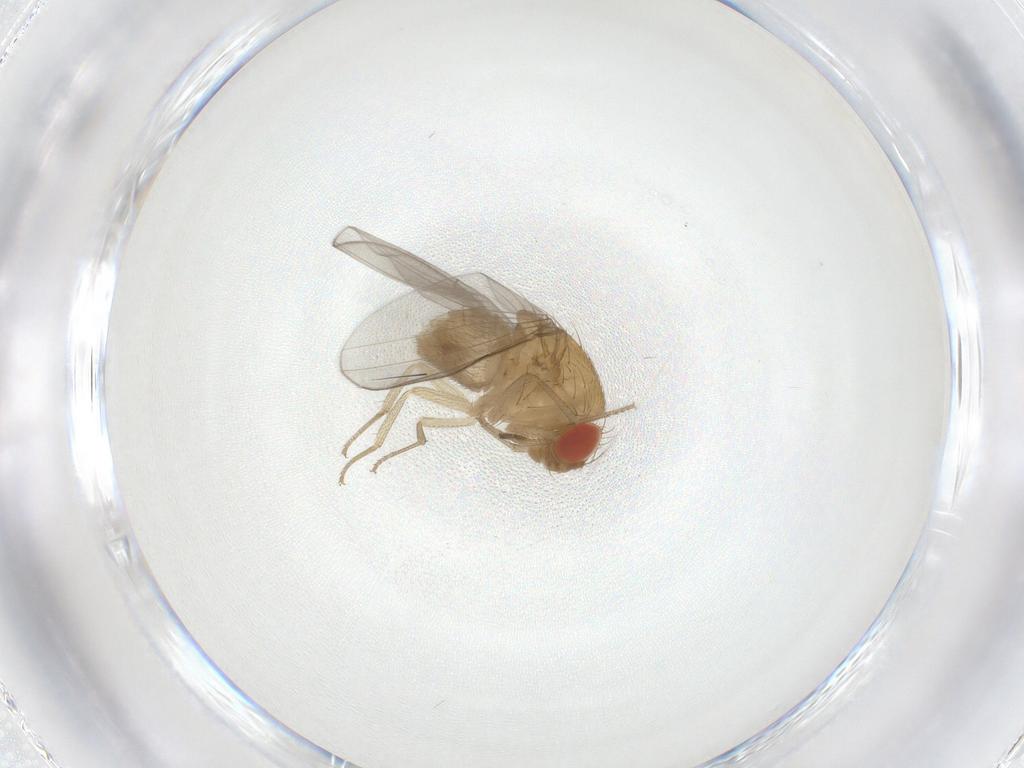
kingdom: Animalia
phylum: Arthropoda
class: Insecta
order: Diptera
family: Drosophilidae
